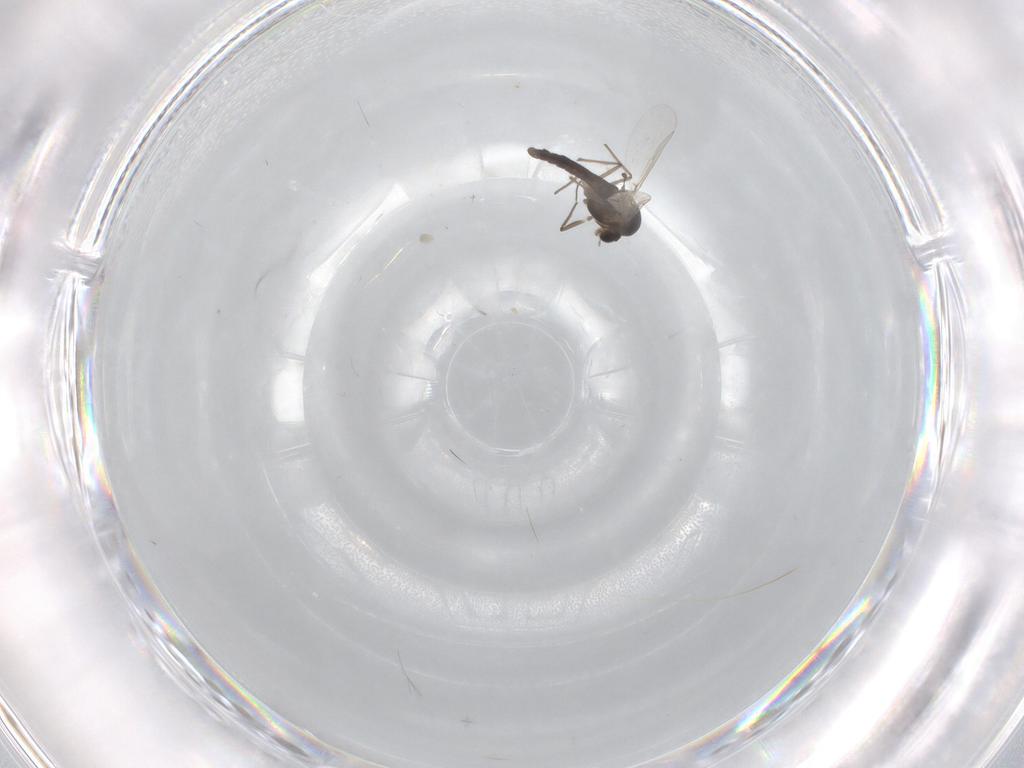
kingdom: Animalia
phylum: Arthropoda
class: Insecta
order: Diptera
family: Chironomidae
